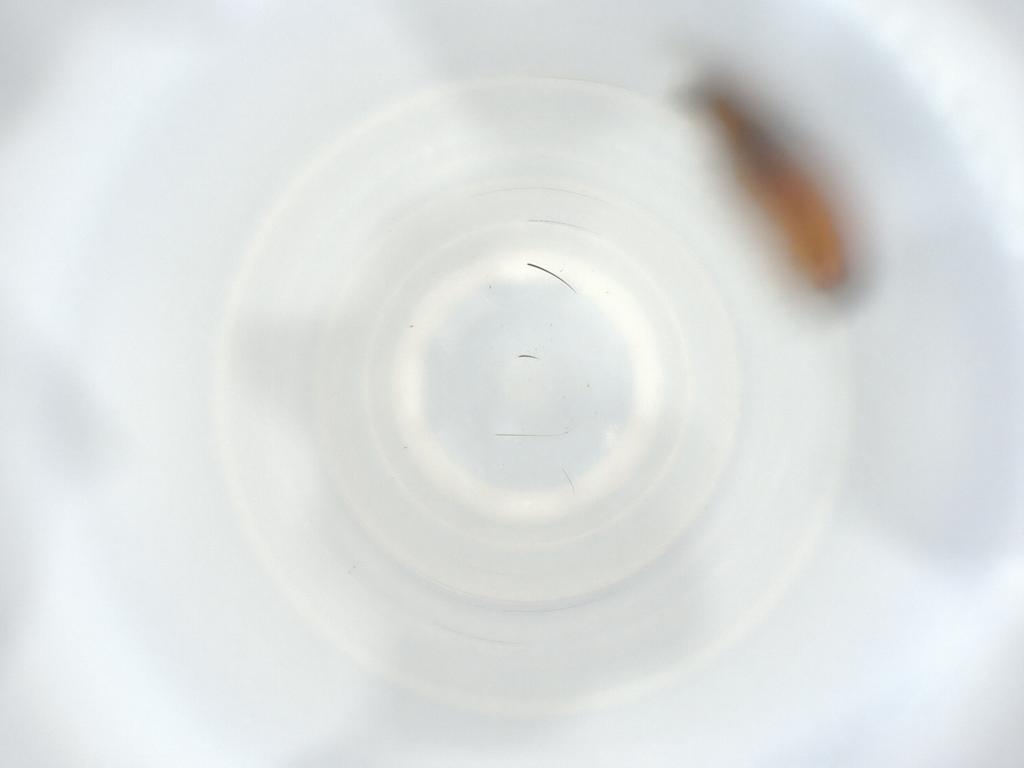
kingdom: Animalia
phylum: Arthropoda
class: Insecta
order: Diptera
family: Phoridae
